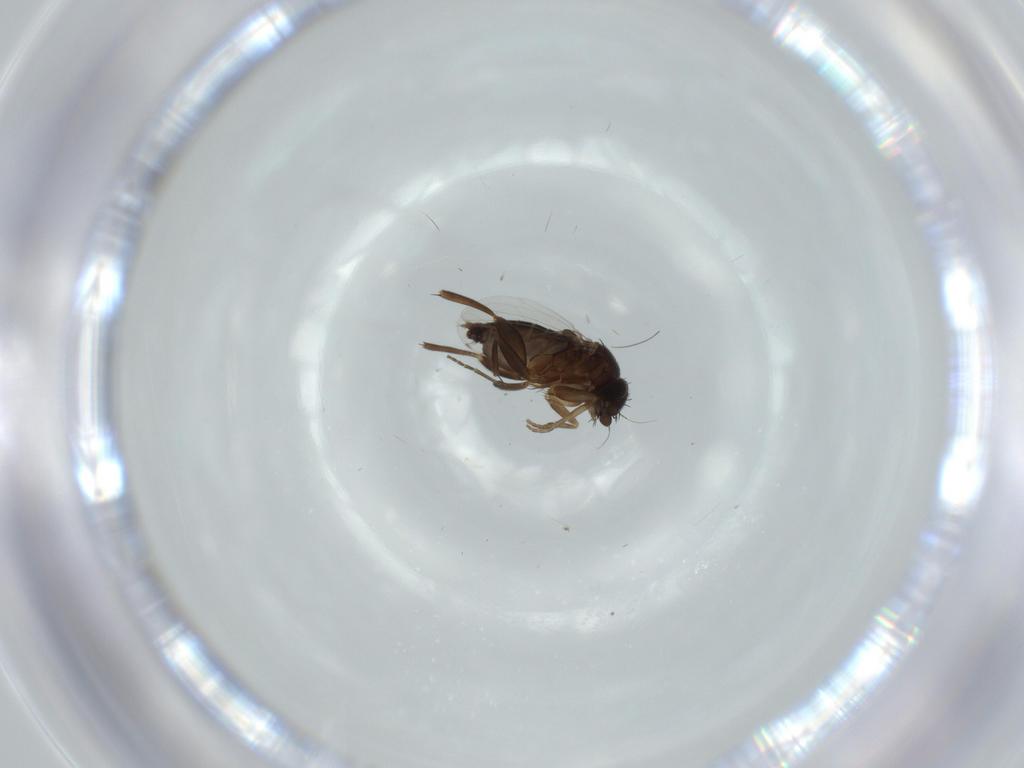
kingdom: Animalia
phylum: Arthropoda
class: Insecta
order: Diptera
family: Phoridae
